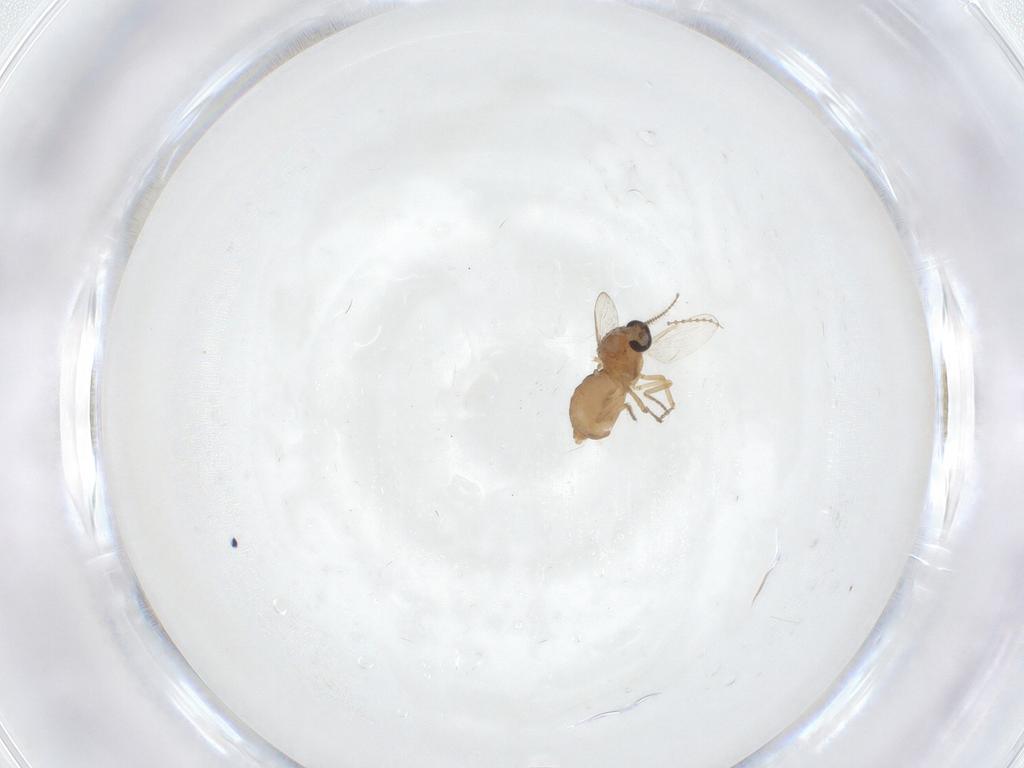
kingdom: Animalia
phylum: Arthropoda
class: Insecta
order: Diptera
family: Ceratopogonidae
